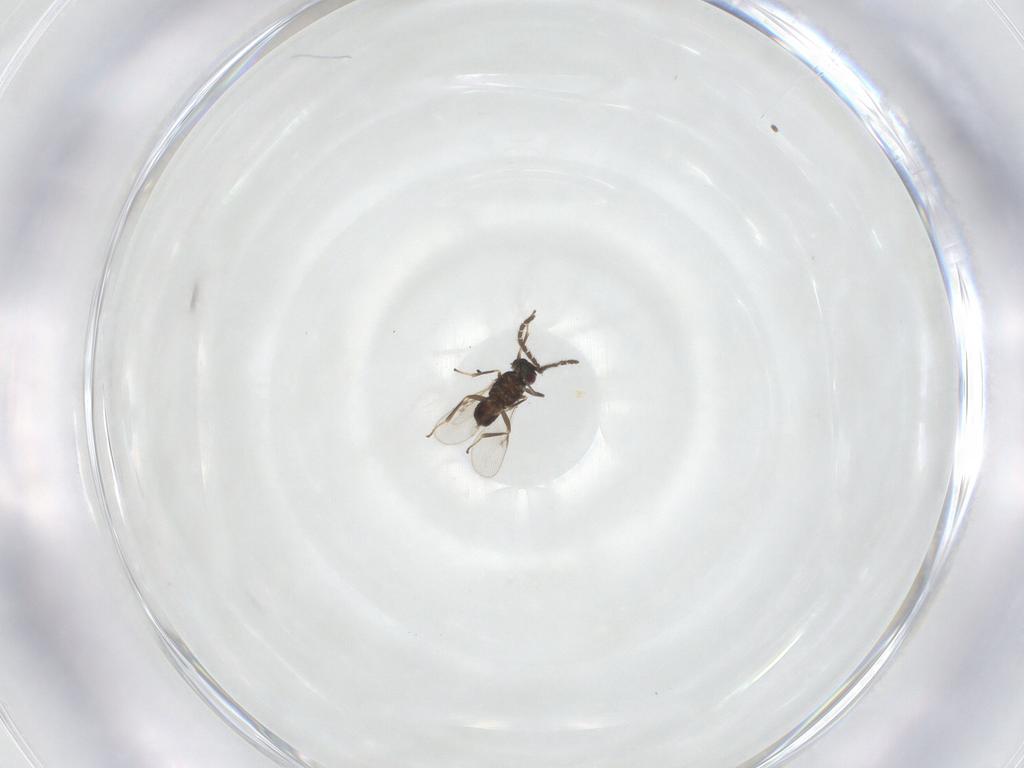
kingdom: Animalia
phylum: Arthropoda
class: Insecta
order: Hymenoptera
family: Encyrtidae
